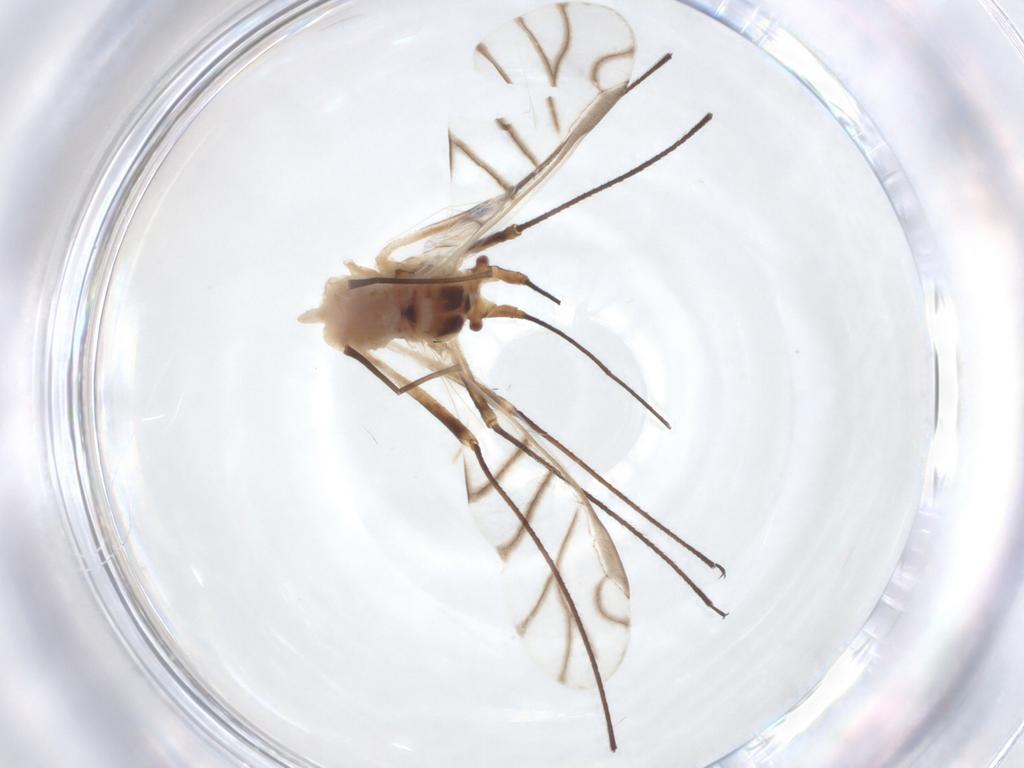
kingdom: Animalia
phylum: Arthropoda
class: Insecta
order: Hemiptera
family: Aphididae
